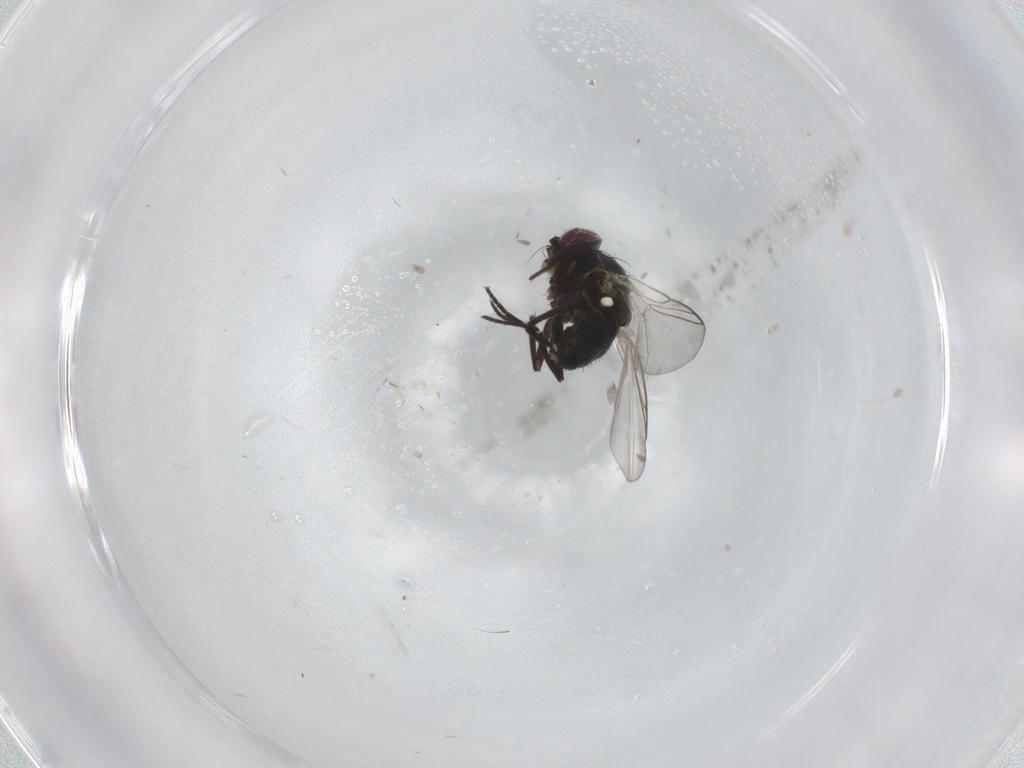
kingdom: Animalia
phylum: Arthropoda
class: Insecta
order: Diptera
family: Agromyzidae
